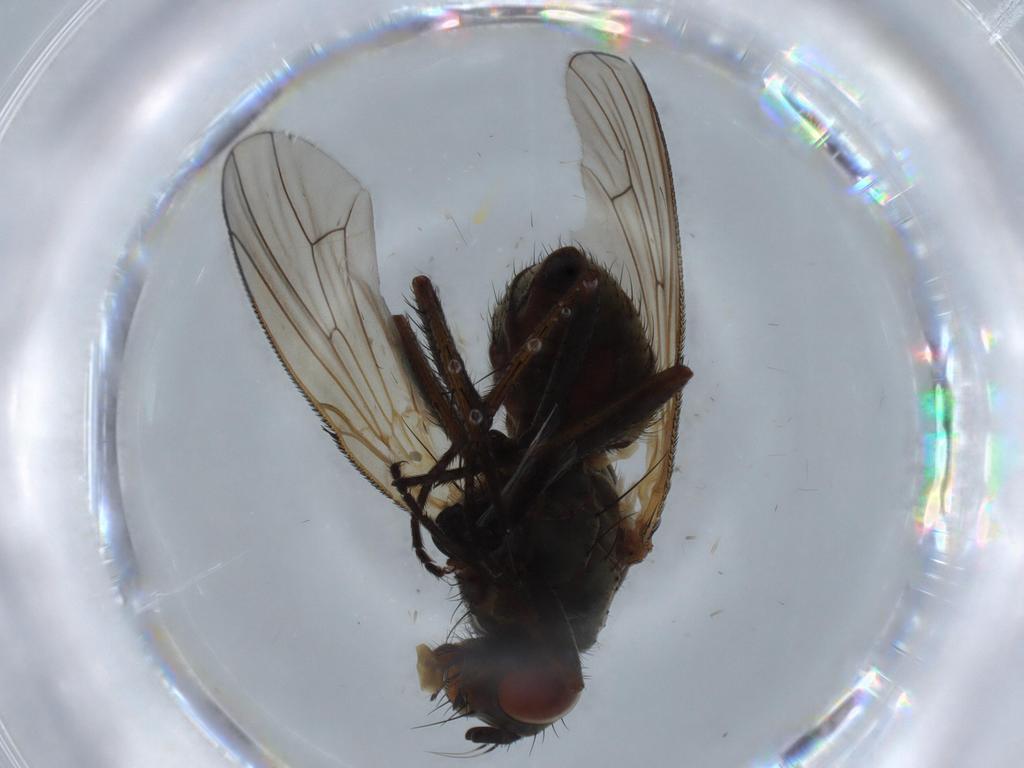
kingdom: Animalia
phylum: Arthropoda
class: Insecta
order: Diptera
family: Anthomyiidae
